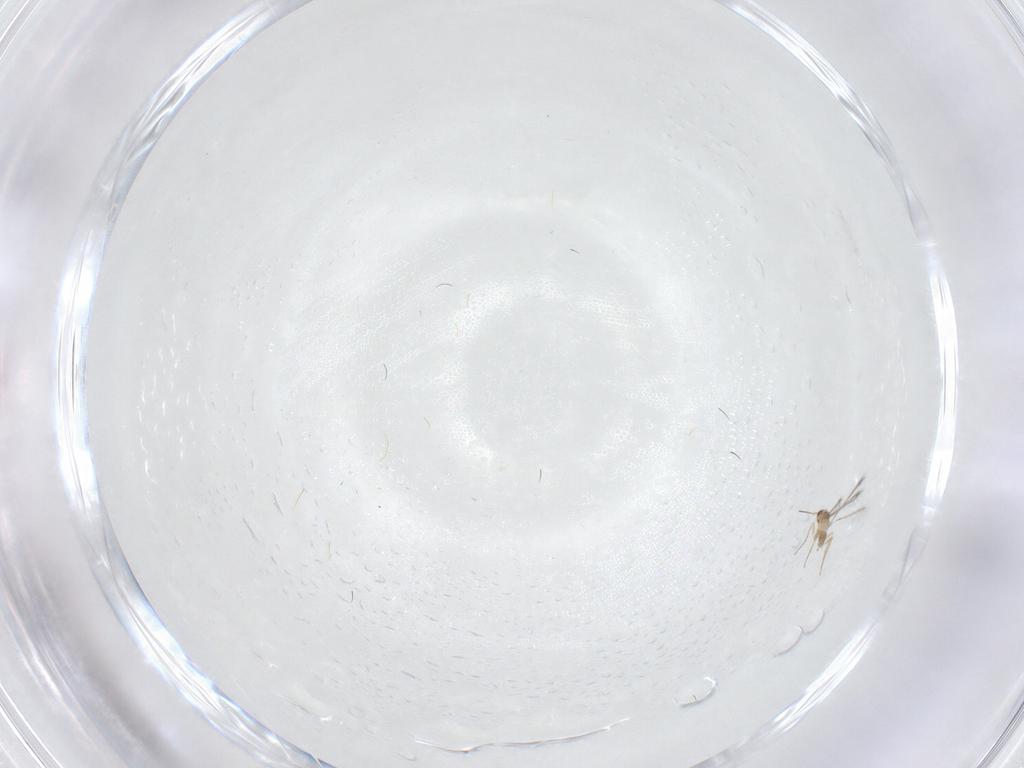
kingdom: Animalia
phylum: Arthropoda
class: Insecta
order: Hymenoptera
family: Mymaridae
